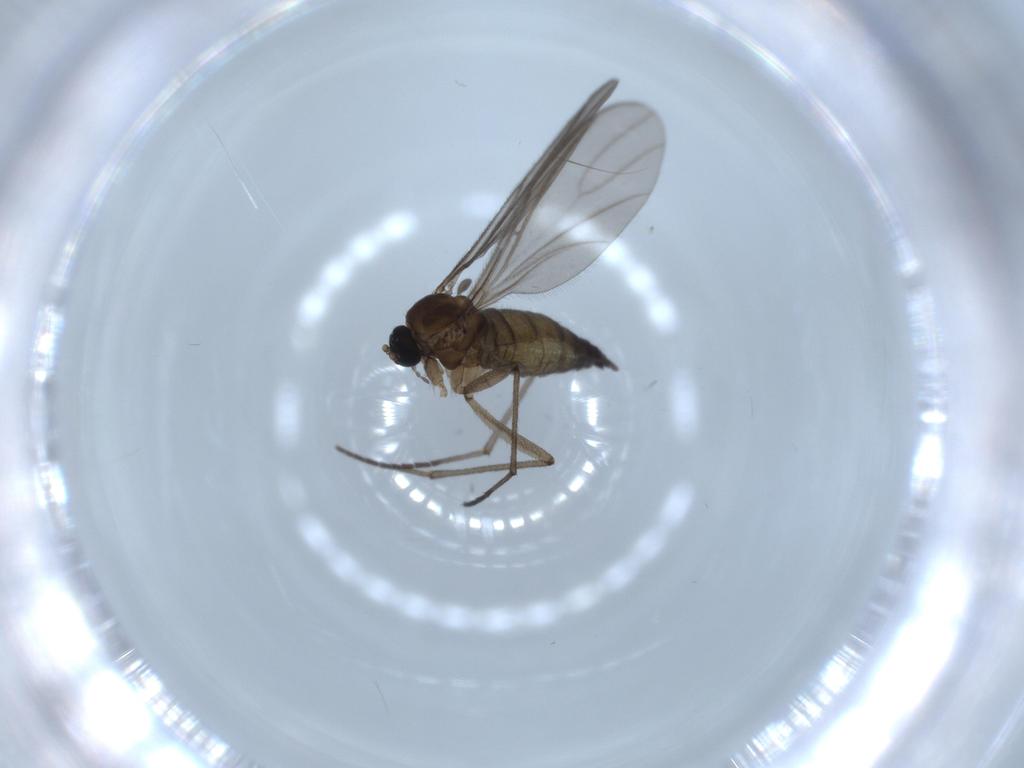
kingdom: Animalia
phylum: Arthropoda
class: Insecta
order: Diptera
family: Sciaridae
